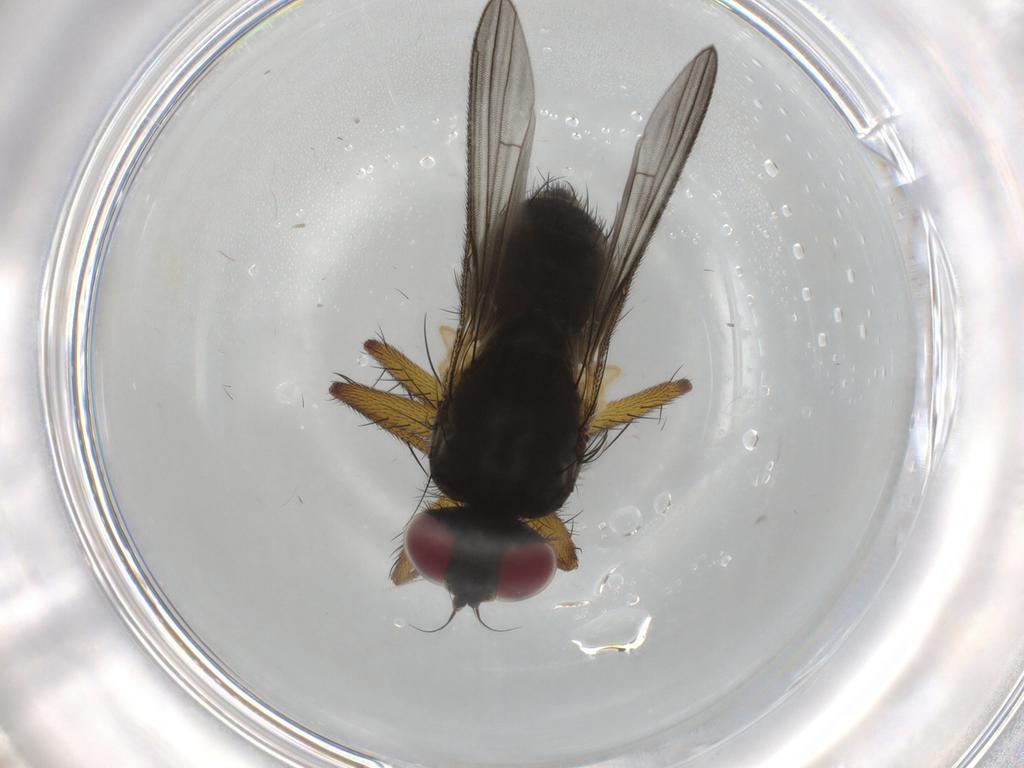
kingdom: Animalia
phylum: Arthropoda
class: Insecta
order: Diptera
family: Muscidae
